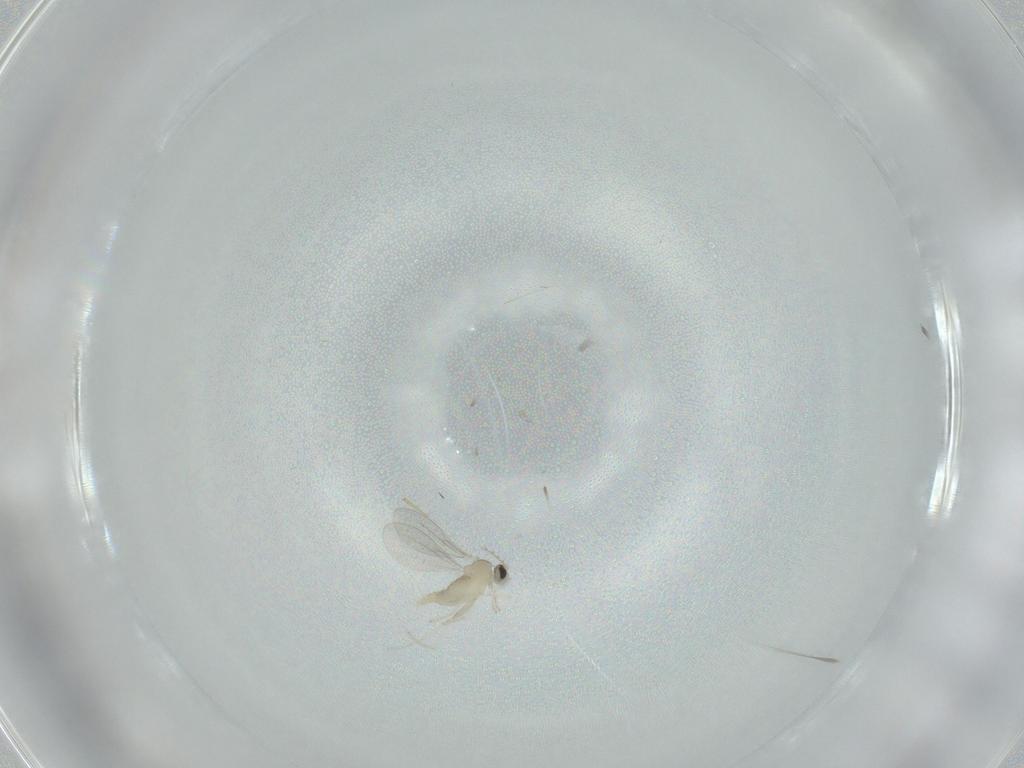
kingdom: Animalia
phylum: Arthropoda
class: Insecta
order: Diptera
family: Cecidomyiidae
